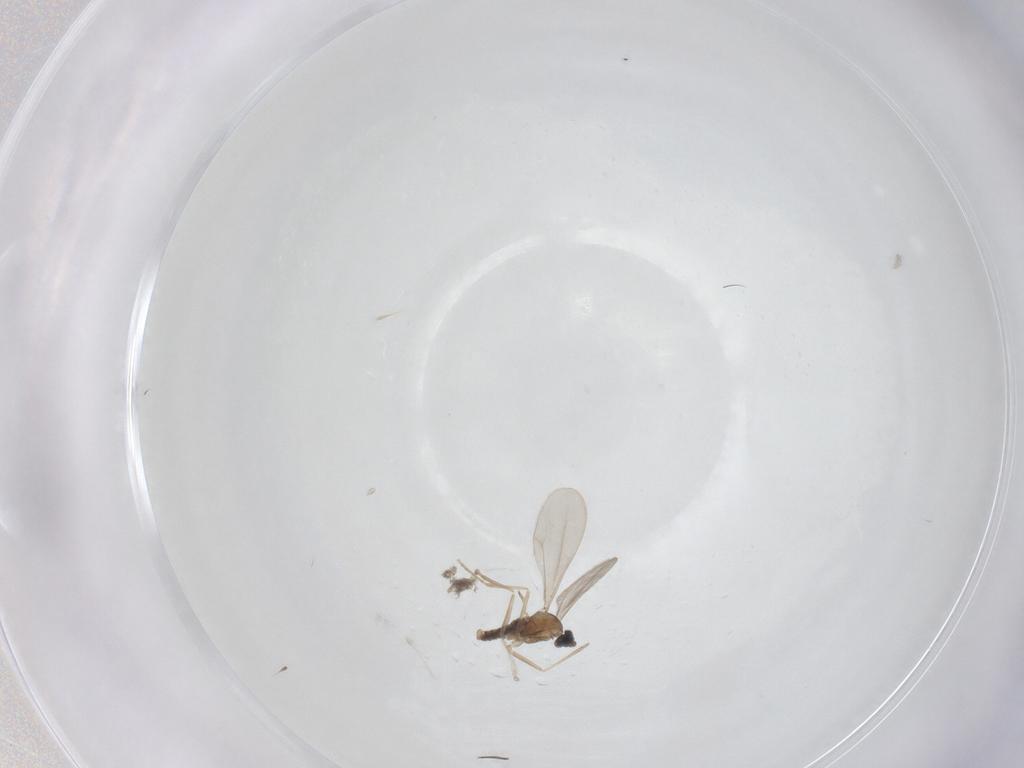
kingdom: Animalia
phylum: Arthropoda
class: Insecta
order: Diptera
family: Cecidomyiidae
